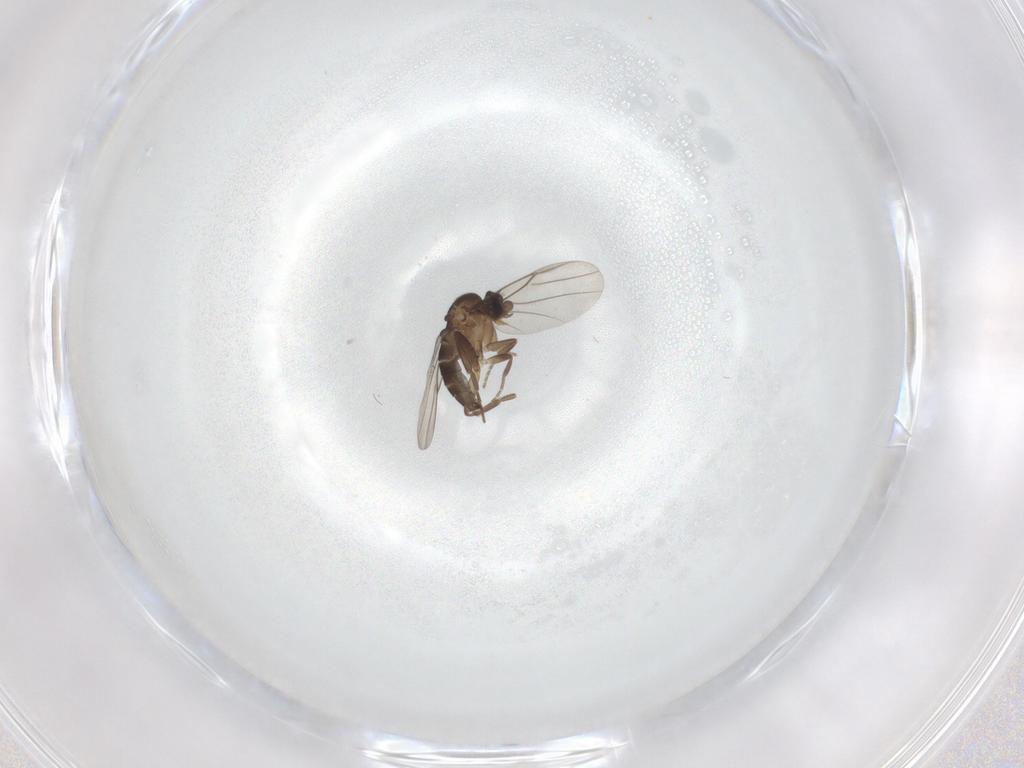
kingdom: Animalia
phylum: Arthropoda
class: Insecta
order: Diptera
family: Phoridae
